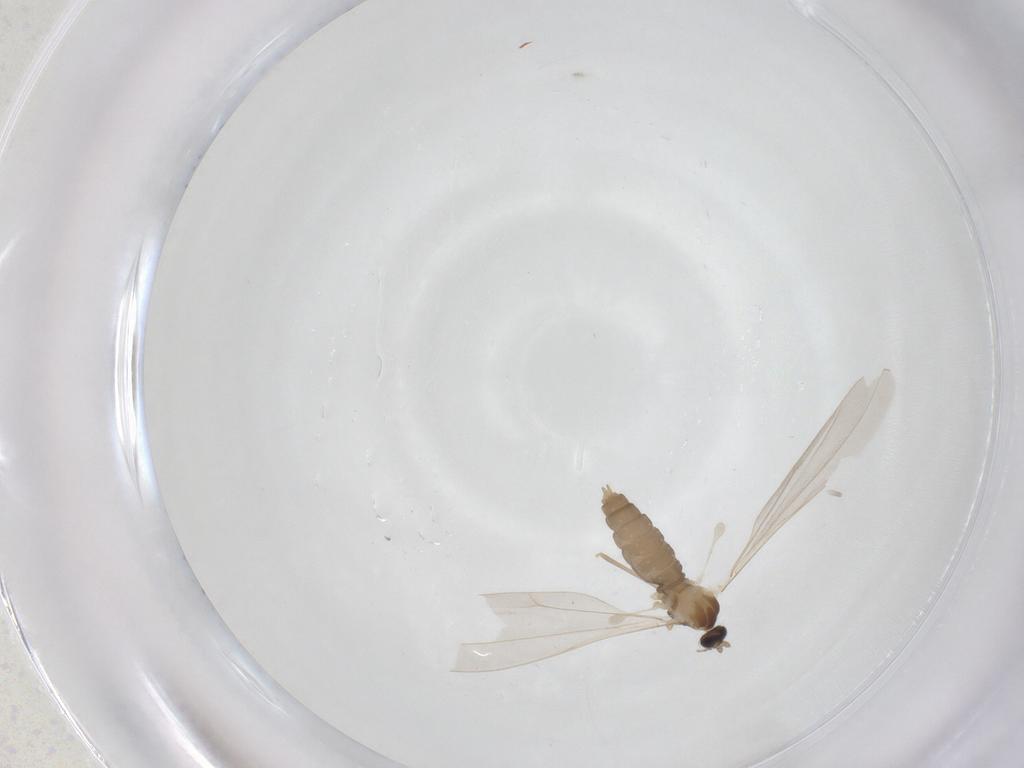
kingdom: Animalia
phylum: Arthropoda
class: Insecta
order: Diptera
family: Cecidomyiidae
